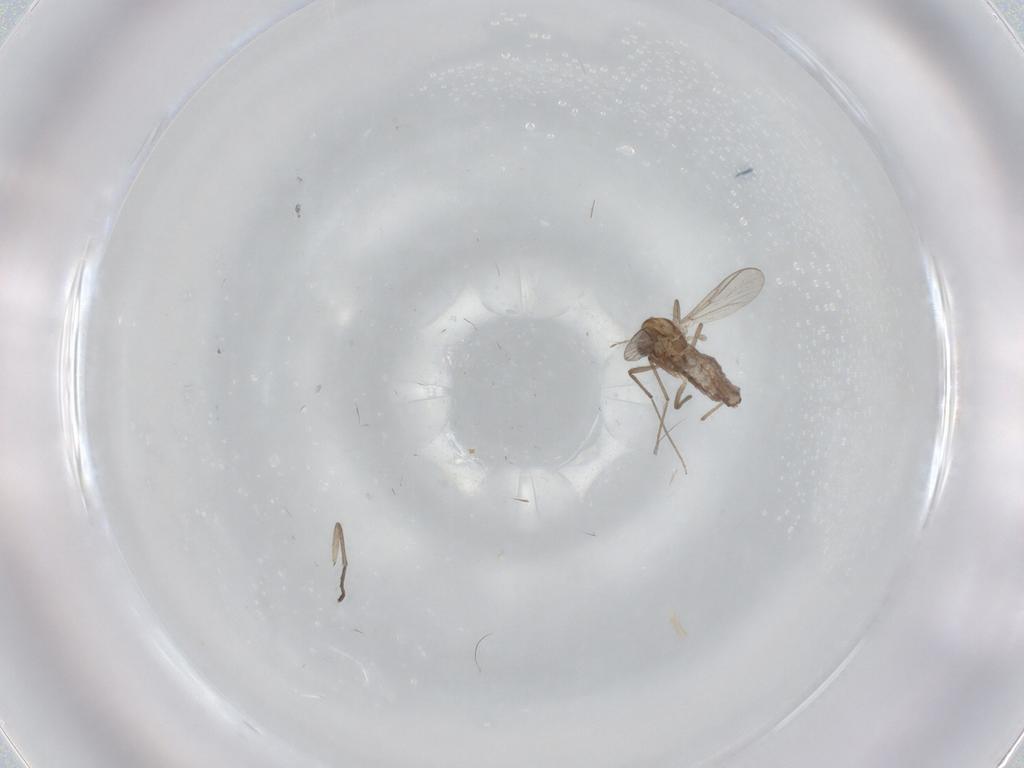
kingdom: Animalia
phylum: Arthropoda
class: Insecta
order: Diptera
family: Chironomidae
